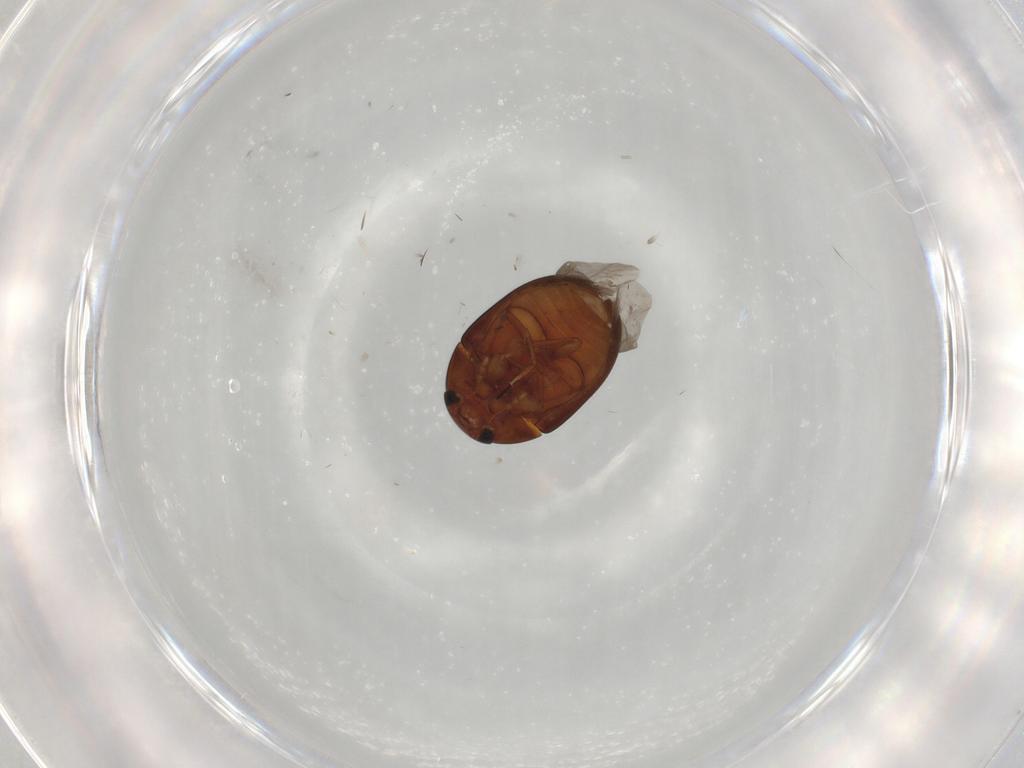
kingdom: Animalia
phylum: Arthropoda
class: Insecta
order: Coleoptera
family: Phalacridae
